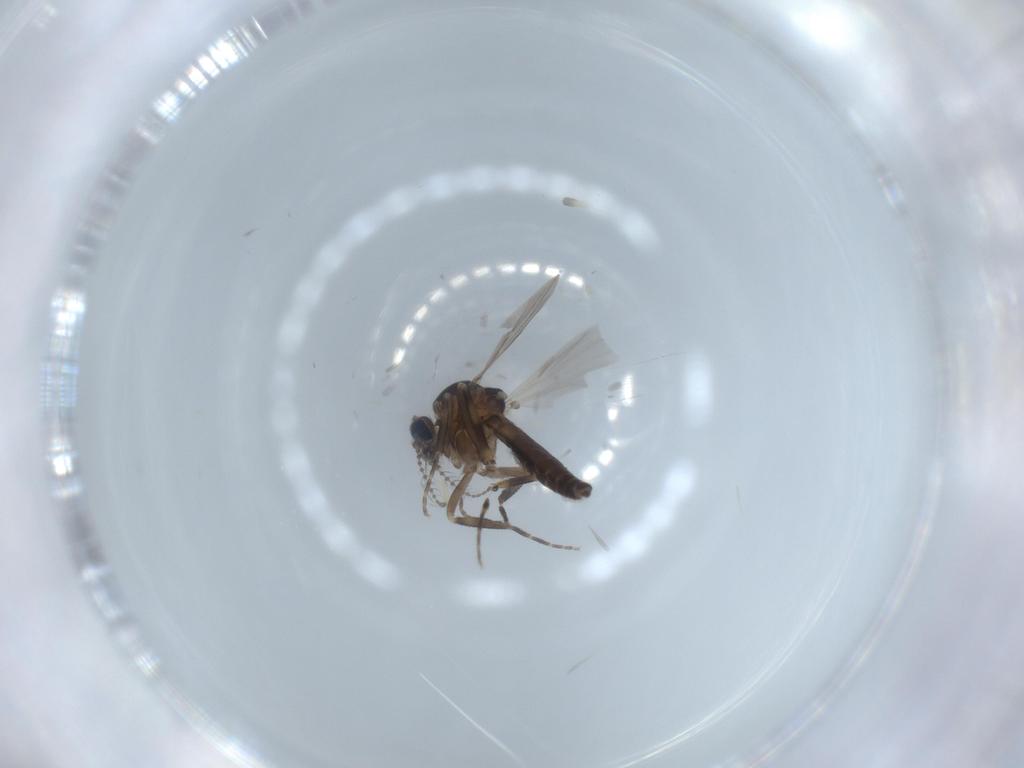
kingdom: Animalia
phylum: Arthropoda
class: Insecta
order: Diptera
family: Ceratopogonidae
